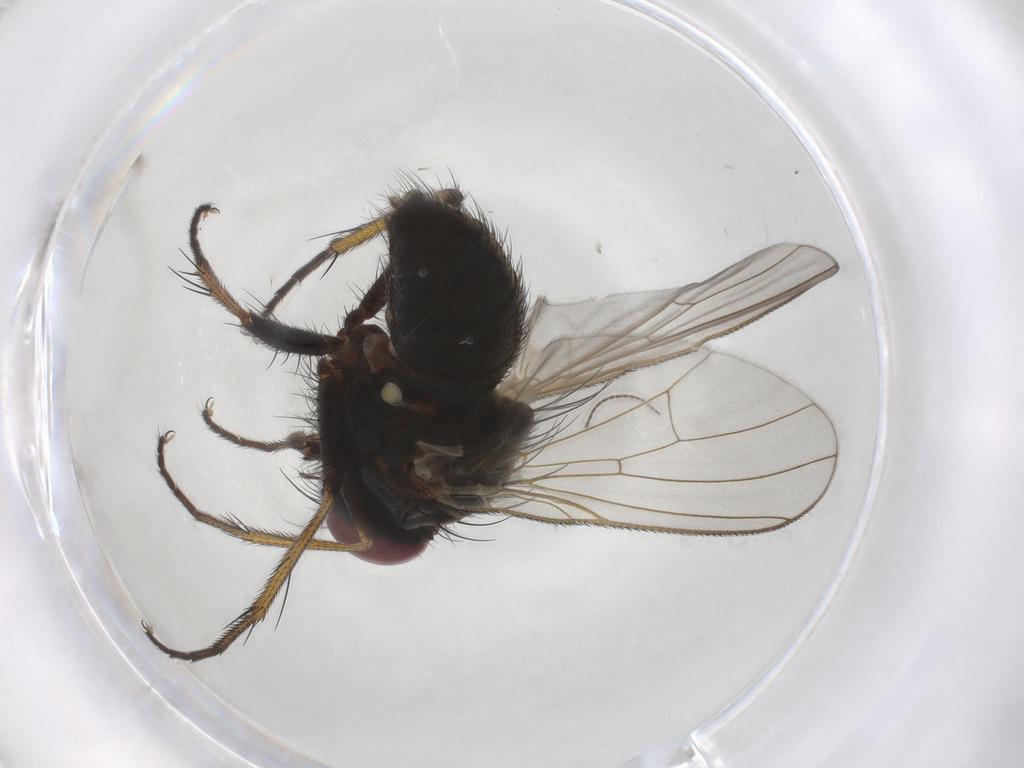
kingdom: Animalia
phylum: Arthropoda
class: Insecta
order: Diptera
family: Muscidae
